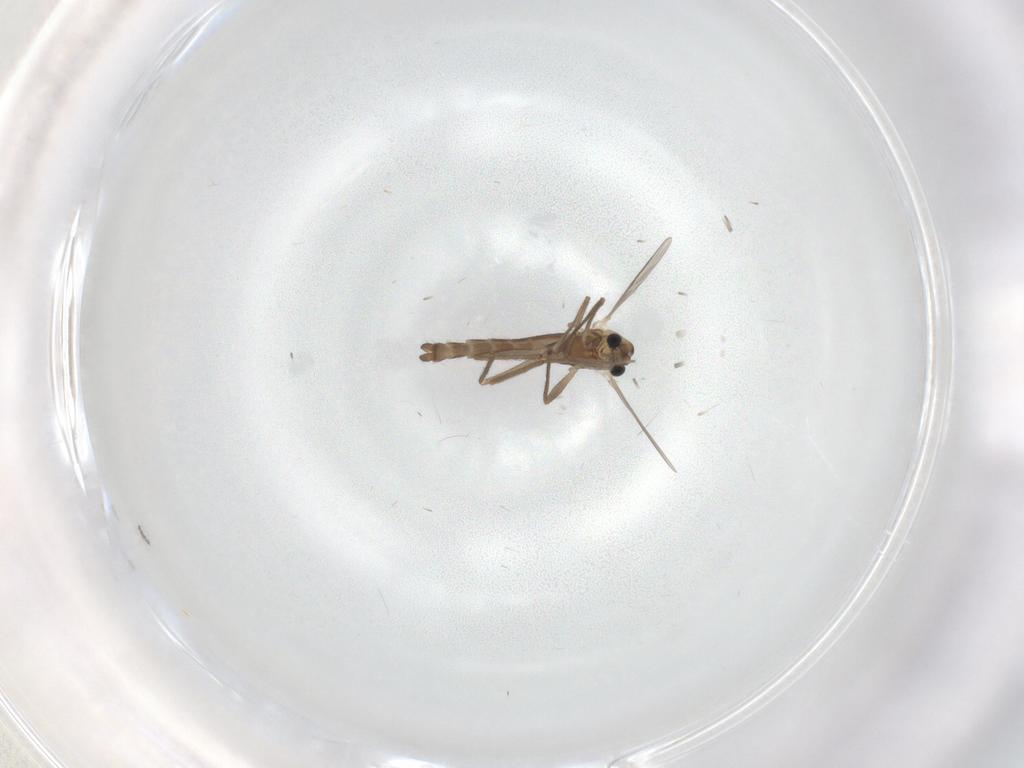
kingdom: Animalia
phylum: Arthropoda
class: Insecta
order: Diptera
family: Chironomidae
